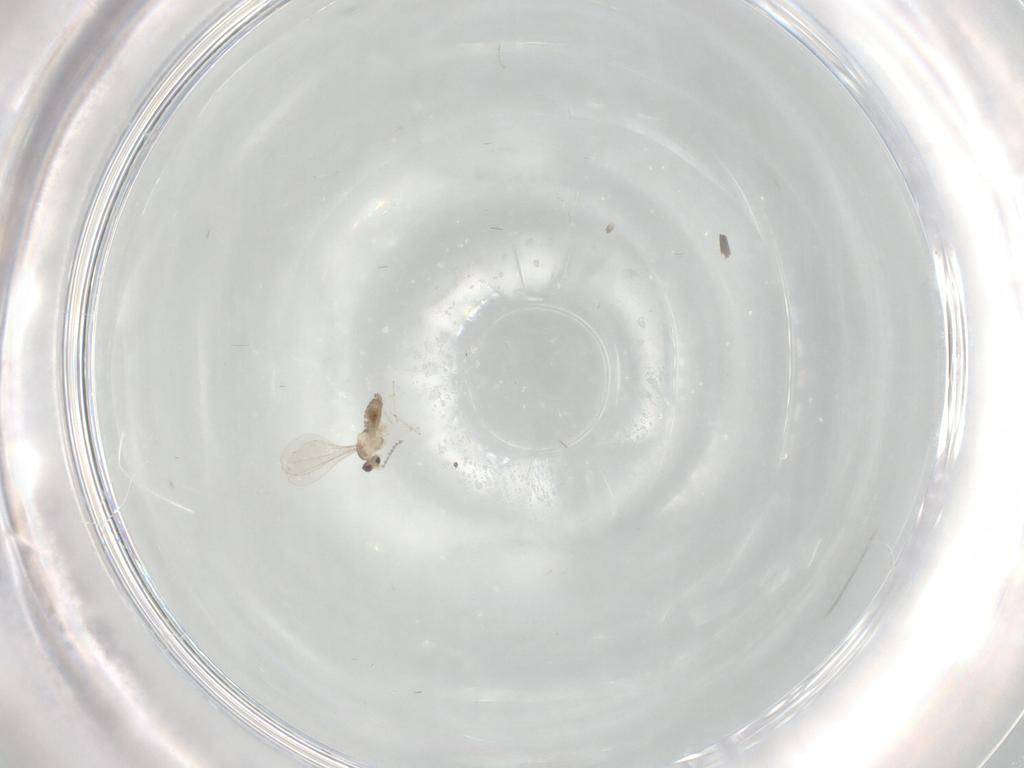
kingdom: Animalia
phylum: Arthropoda
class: Insecta
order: Diptera
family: Cecidomyiidae
